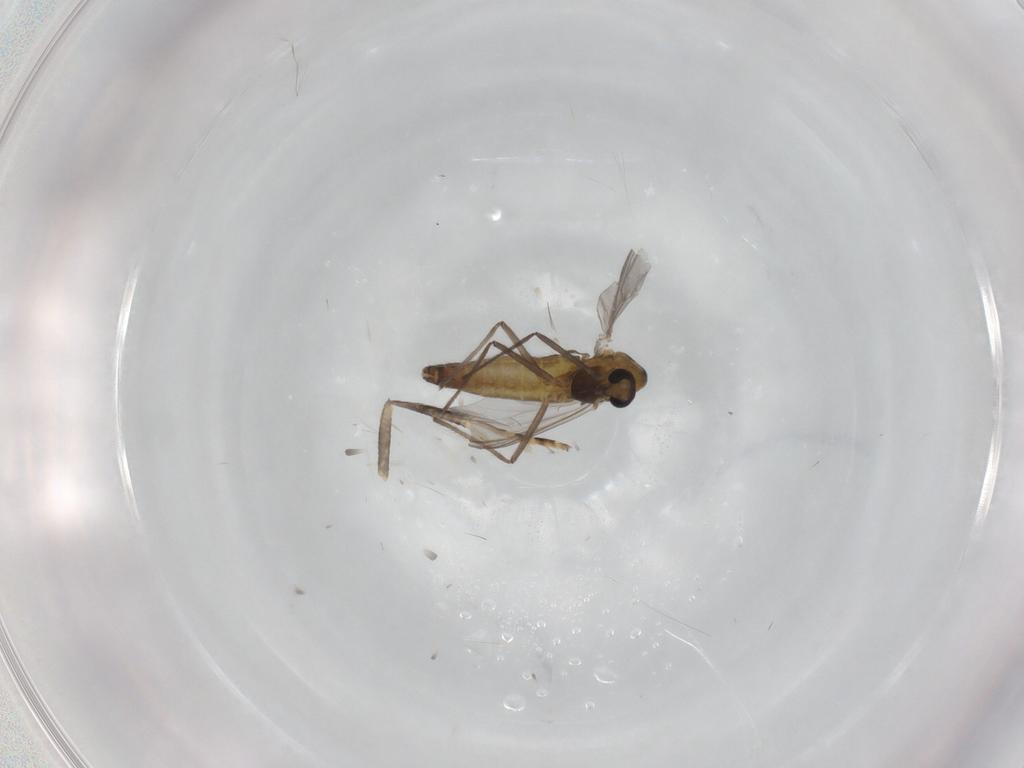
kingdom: Animalia
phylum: Arthropoda
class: Insecta
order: Diptera
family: Chironomidae
